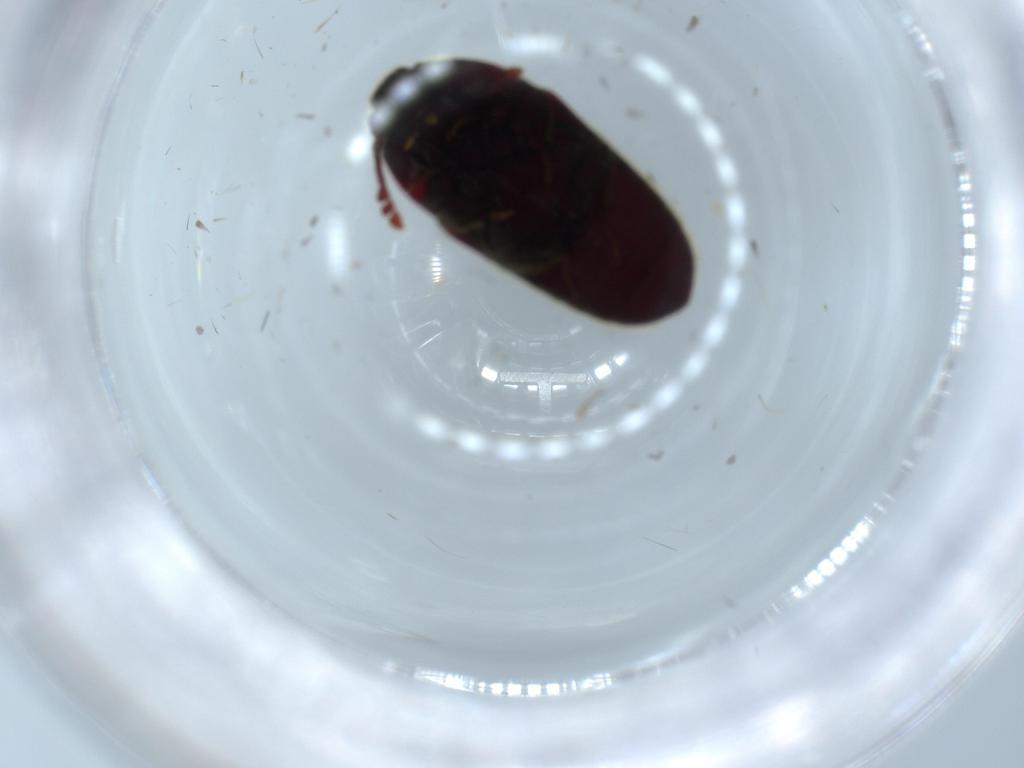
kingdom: Animalia
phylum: Arthropoda
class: Insecta
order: Coleoptera
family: Throscidae
